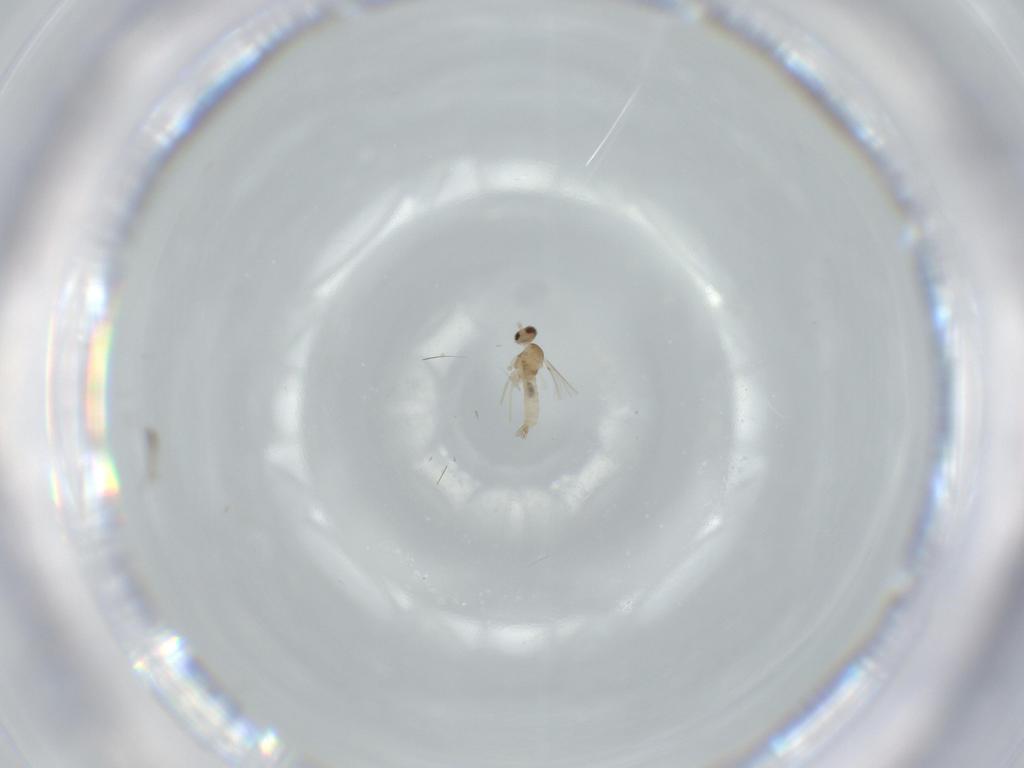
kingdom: Animalia
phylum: Arthropoda
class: Insecta
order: Diptera
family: Cecidomyiidae
